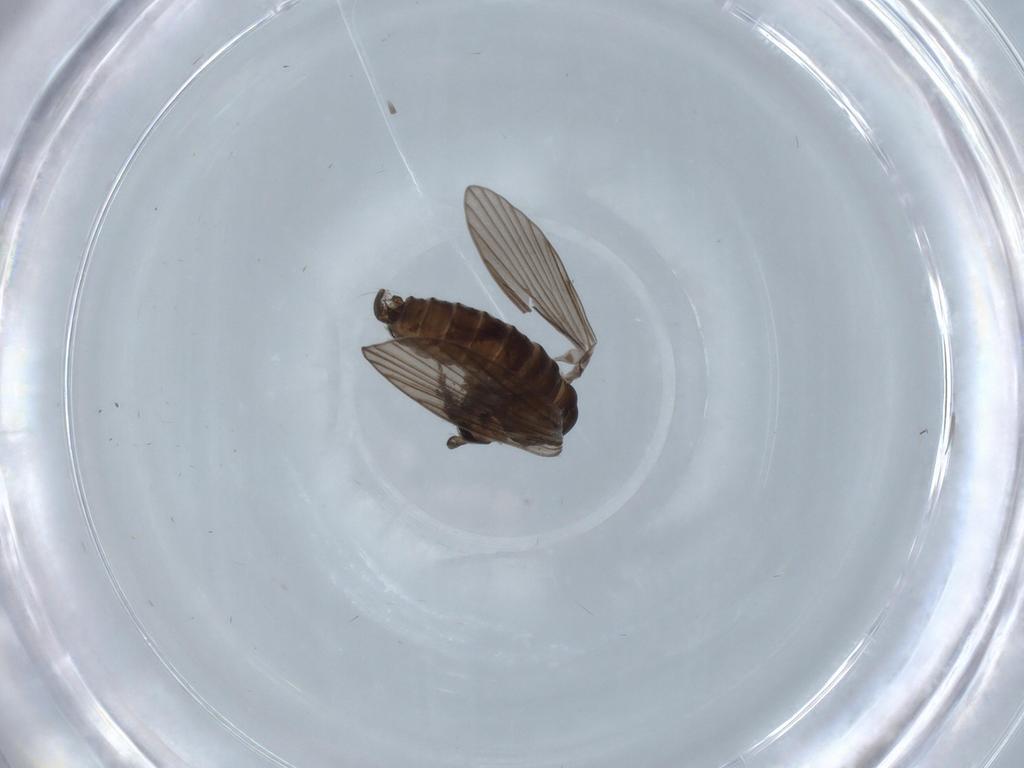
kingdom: Animalia
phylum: Arthropoda
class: Insecta
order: Diptera
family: Psychodidae
